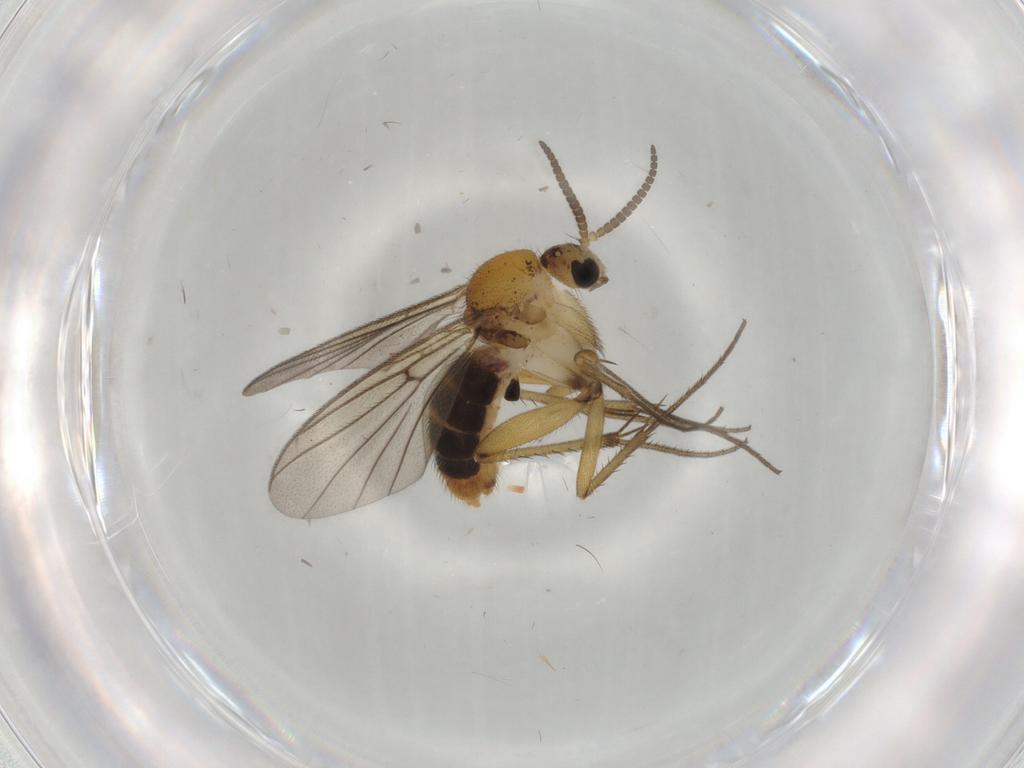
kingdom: Animalia
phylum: Arthropoda
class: Insecta
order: Diptera
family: Cecidomyiidae
